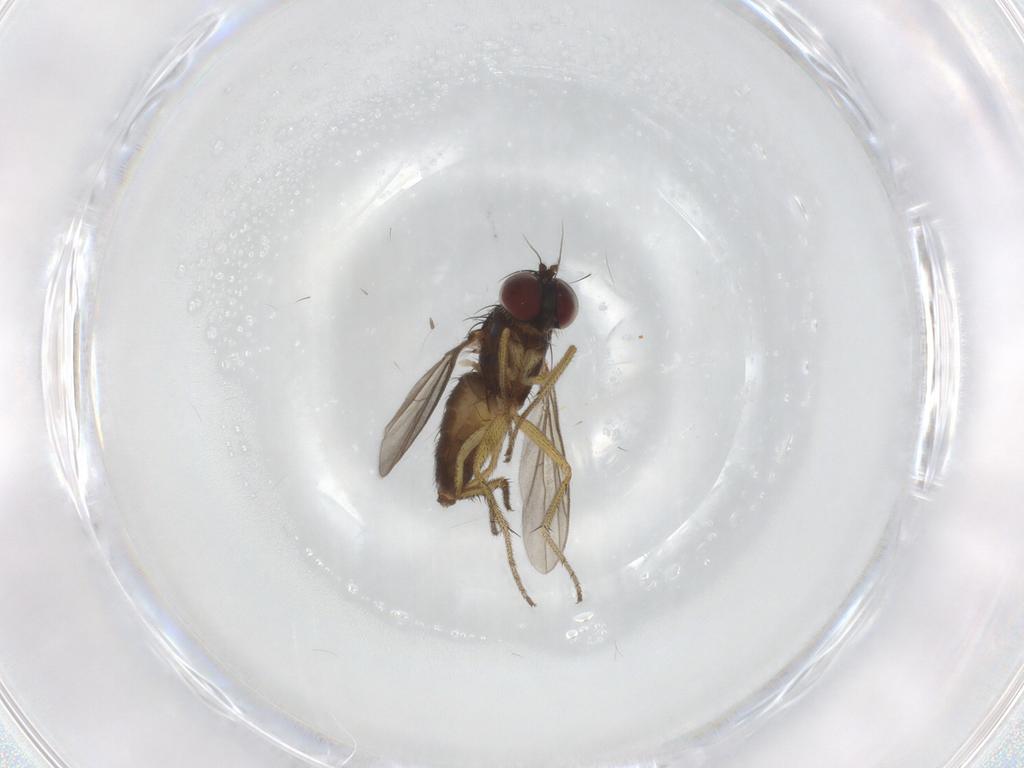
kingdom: Animalia
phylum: Arthropoda
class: Insecta
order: Diptera
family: Dolichopodidae
